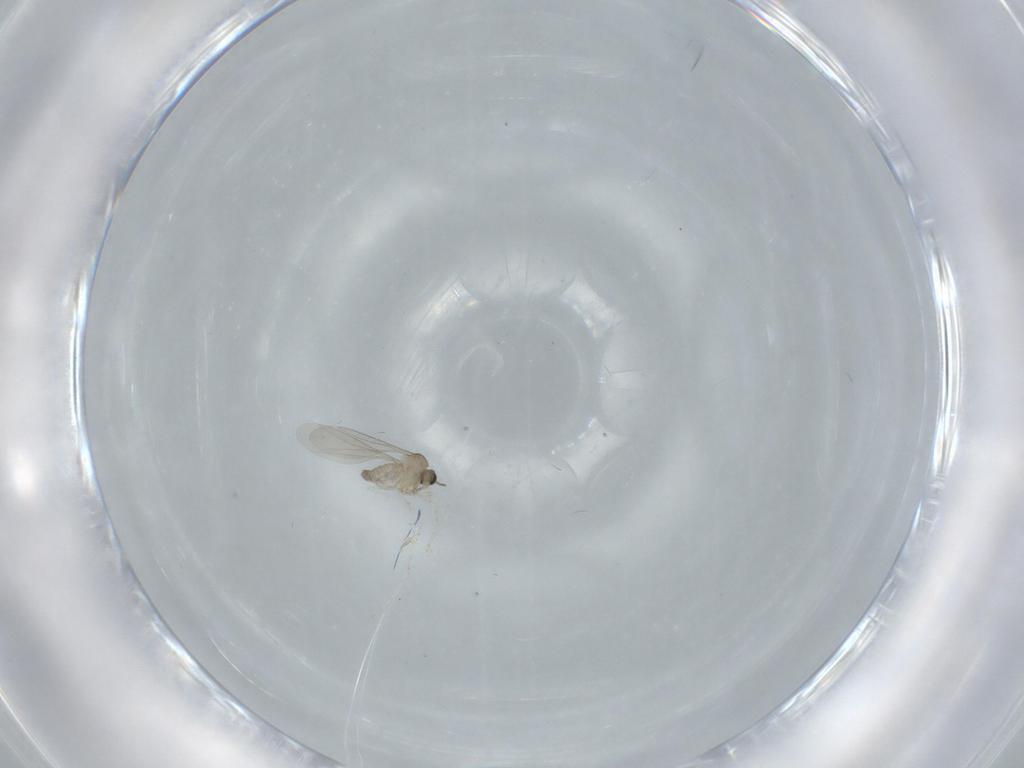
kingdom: Animalia
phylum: Arthropoda
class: Insecta
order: Diptera
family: Cecidomyiidae
